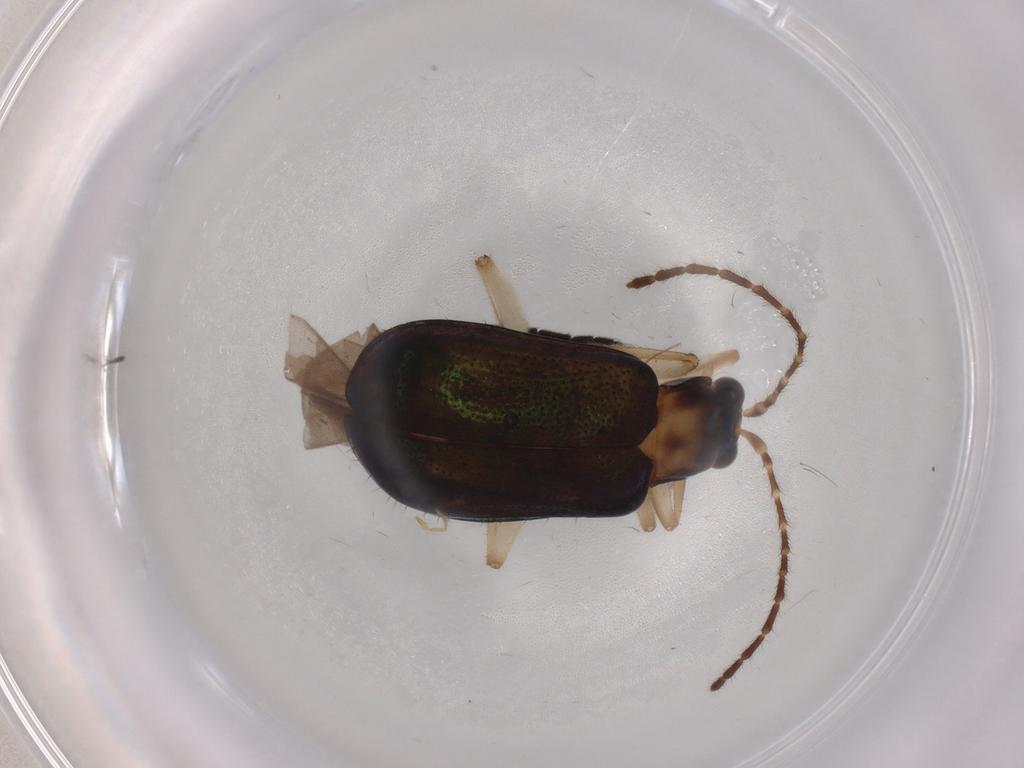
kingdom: Animalia
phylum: Arthropoda
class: Insecta
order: Coleoptera
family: Chrysomelidae
